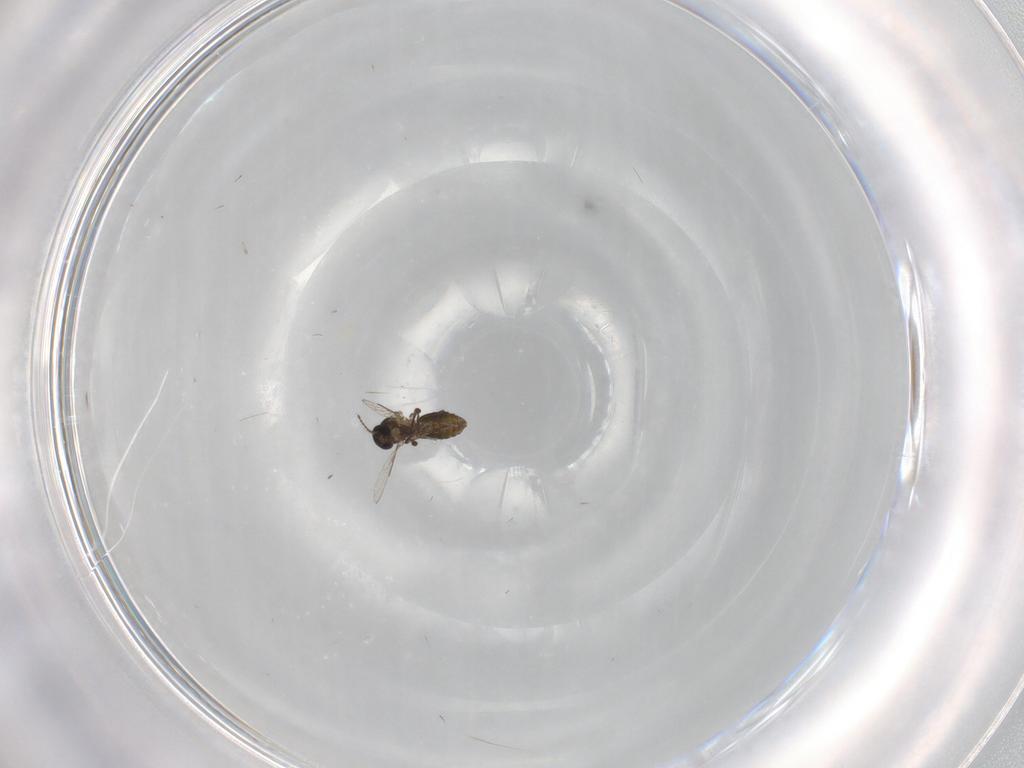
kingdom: Animalia
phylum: Arthropoda
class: Insecta
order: Diptera
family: Ceratopogonidae
